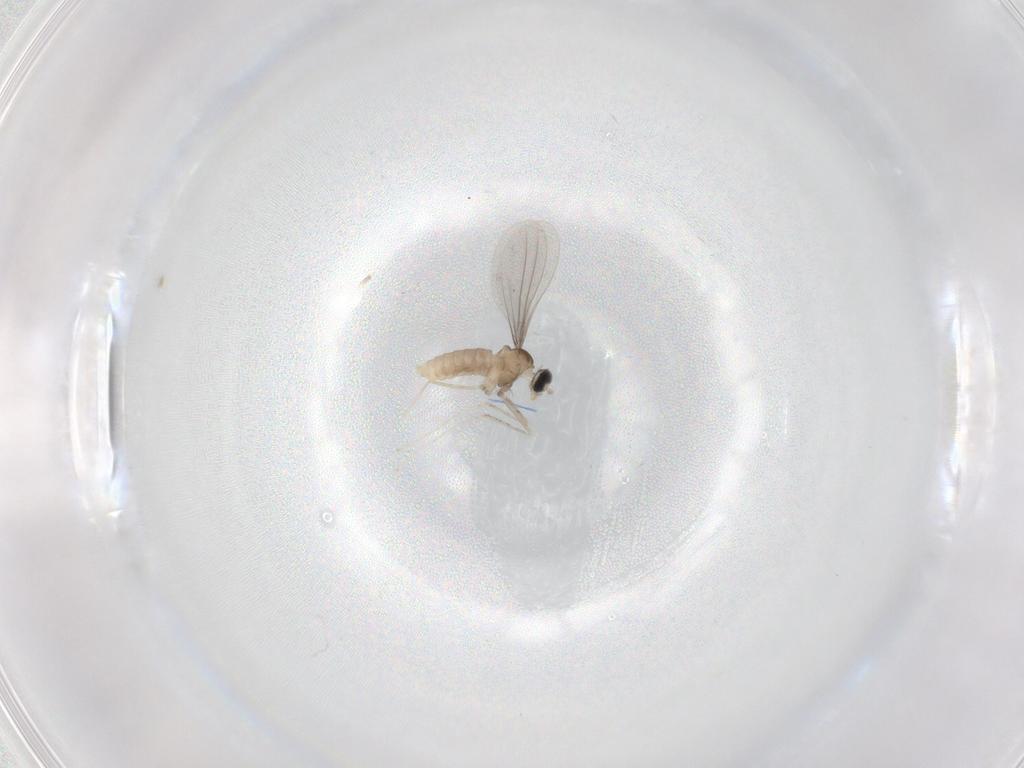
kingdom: Animalia
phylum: Arthropoda
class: Insecta
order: Diptera
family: Cecidomyiidae
